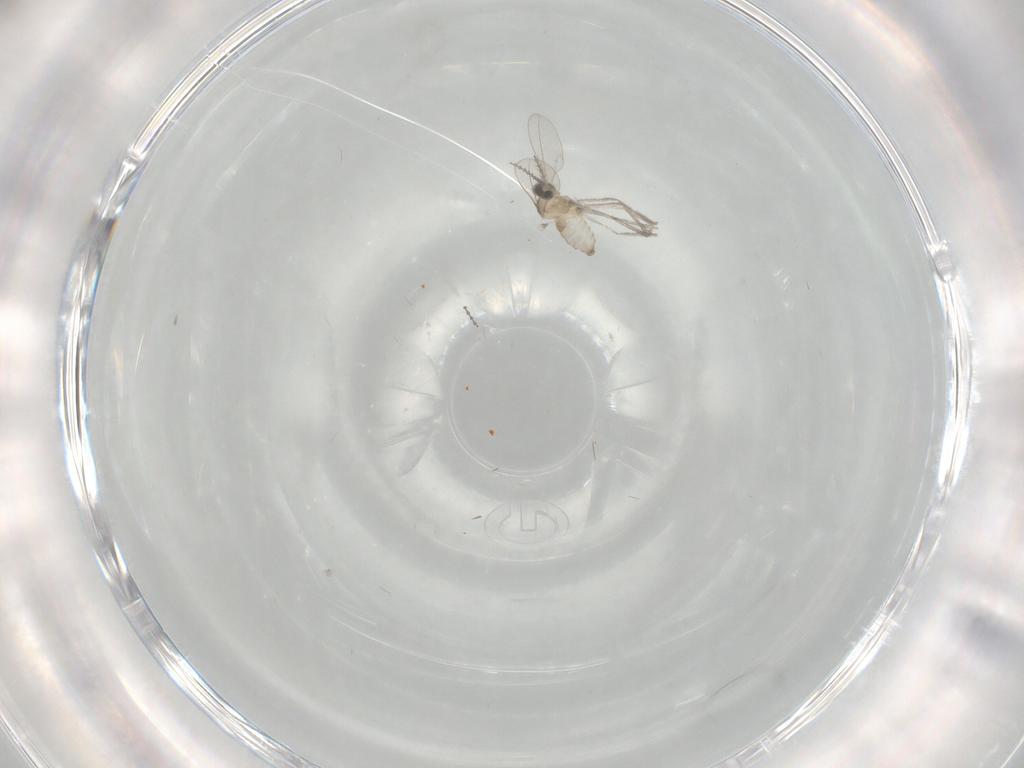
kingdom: Animalia
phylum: Arthropoda
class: Insecta
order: Diptera
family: Cecidomyiidae
